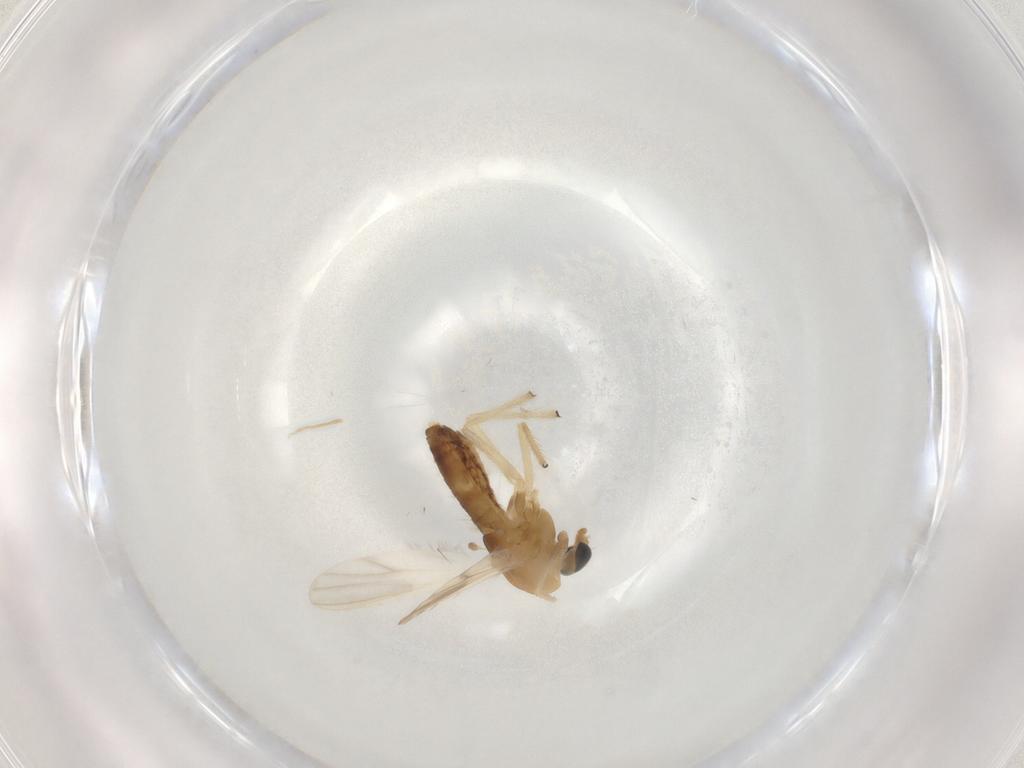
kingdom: Animalia
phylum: Arthropoda
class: Insecta
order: Diptera
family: Chironomidae
